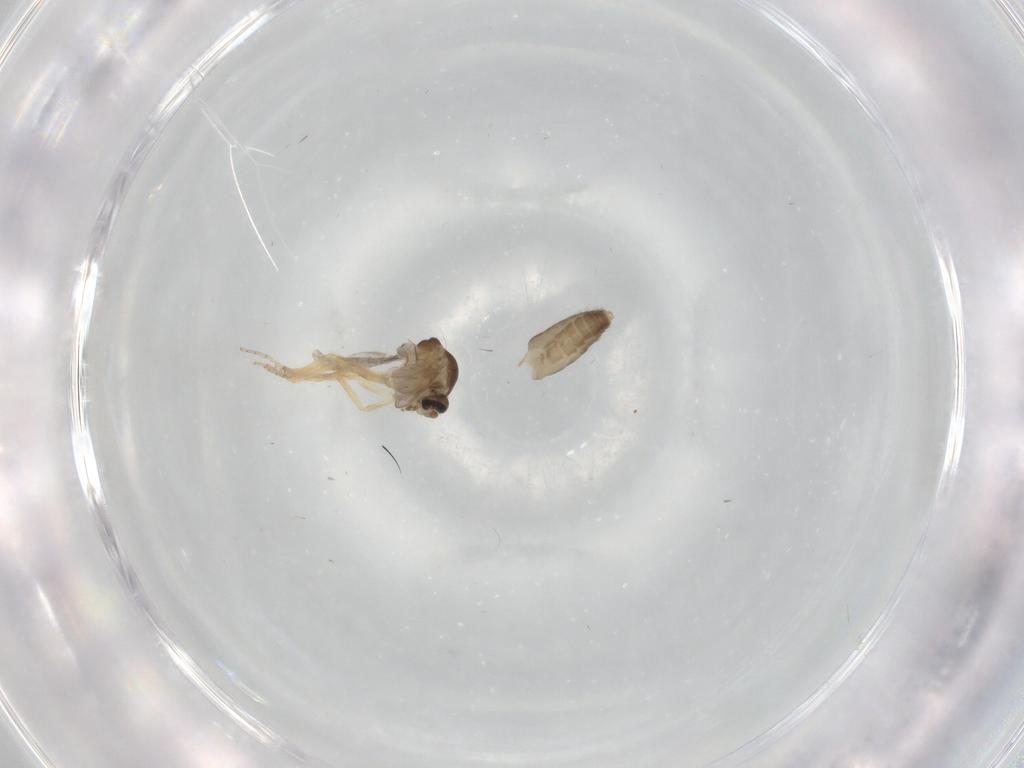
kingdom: Animalia
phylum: Arthropoda
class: Insecta
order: Diptera
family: Ceratopogonidae
